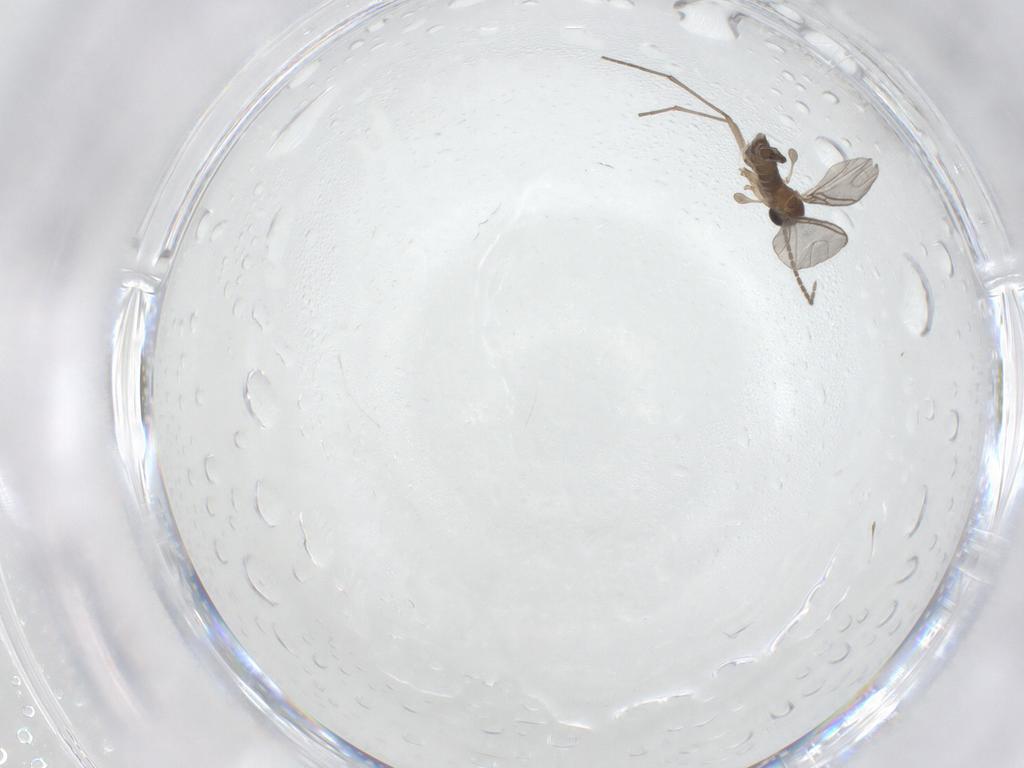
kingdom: Animalia
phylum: Arthropoda
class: Insecta
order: Diptera
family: Sciaridae
